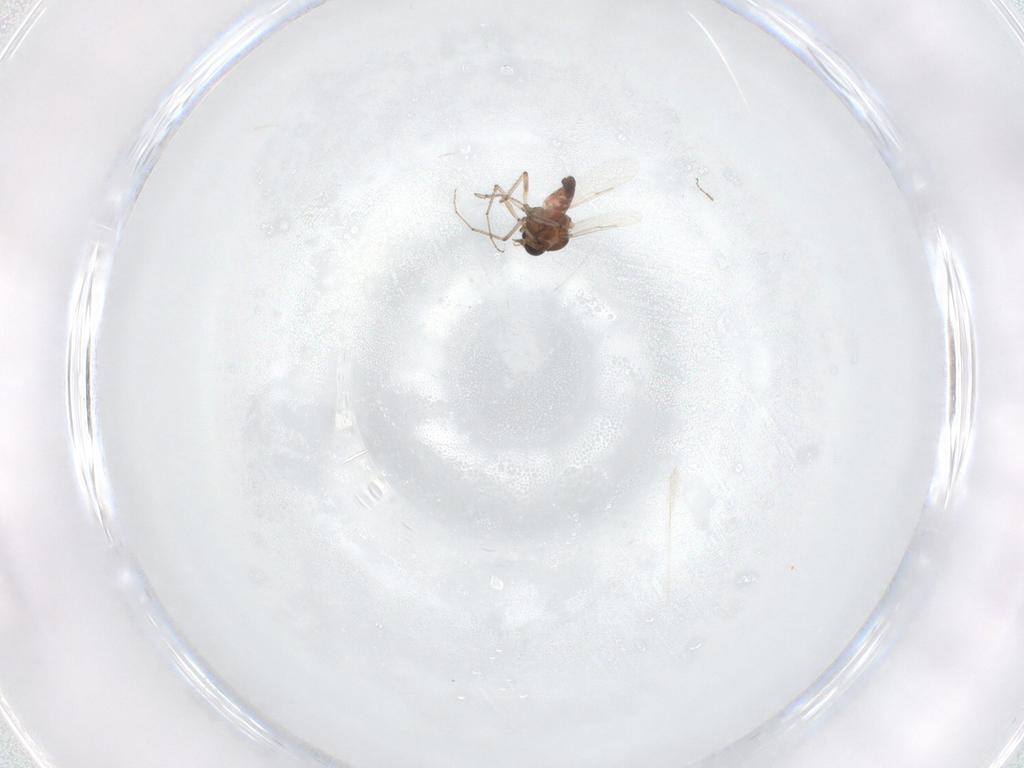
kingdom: Animalia
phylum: Arthropoda
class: Insecta
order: Diptera
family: Ceratopogonidae
